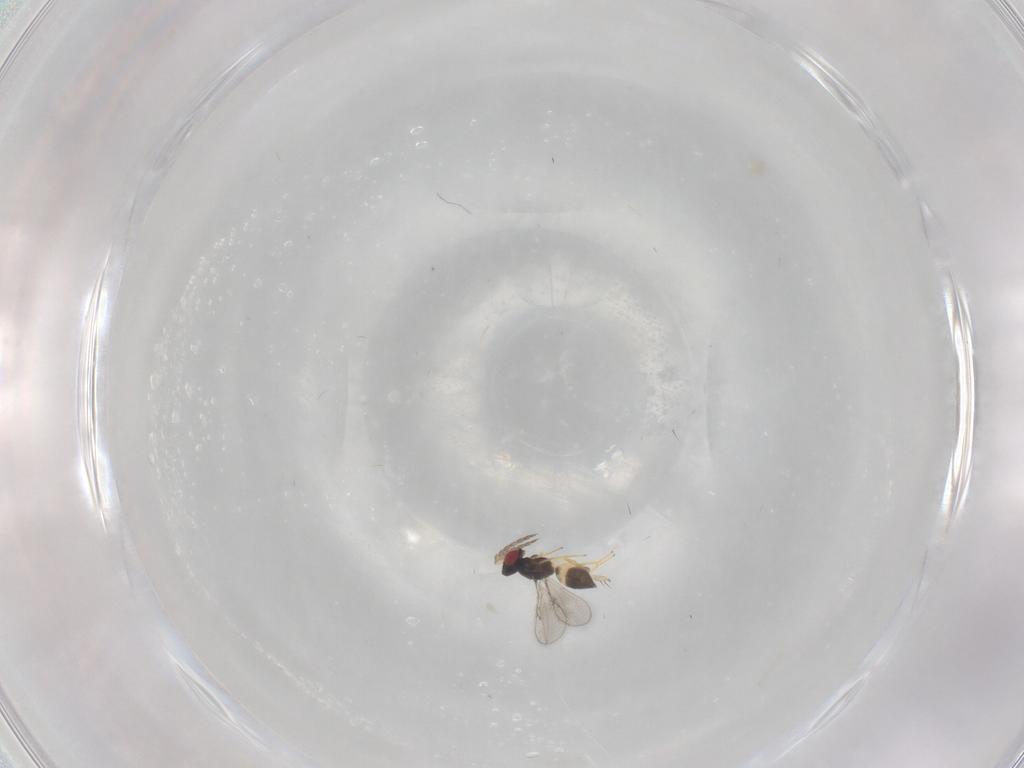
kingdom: Animalia
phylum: Arthropoda
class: Insecta
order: Hymenoptera
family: Eulophidae
